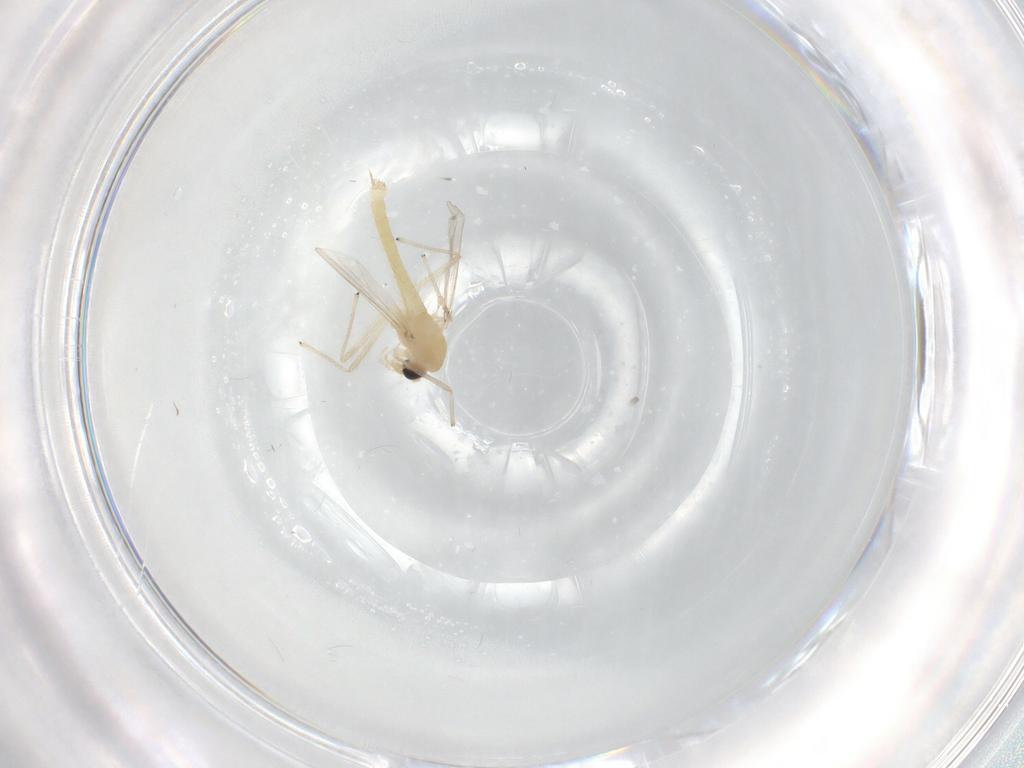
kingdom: Animalia
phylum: Arthropoda
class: Insecta
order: Diptera
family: Chironomidae
